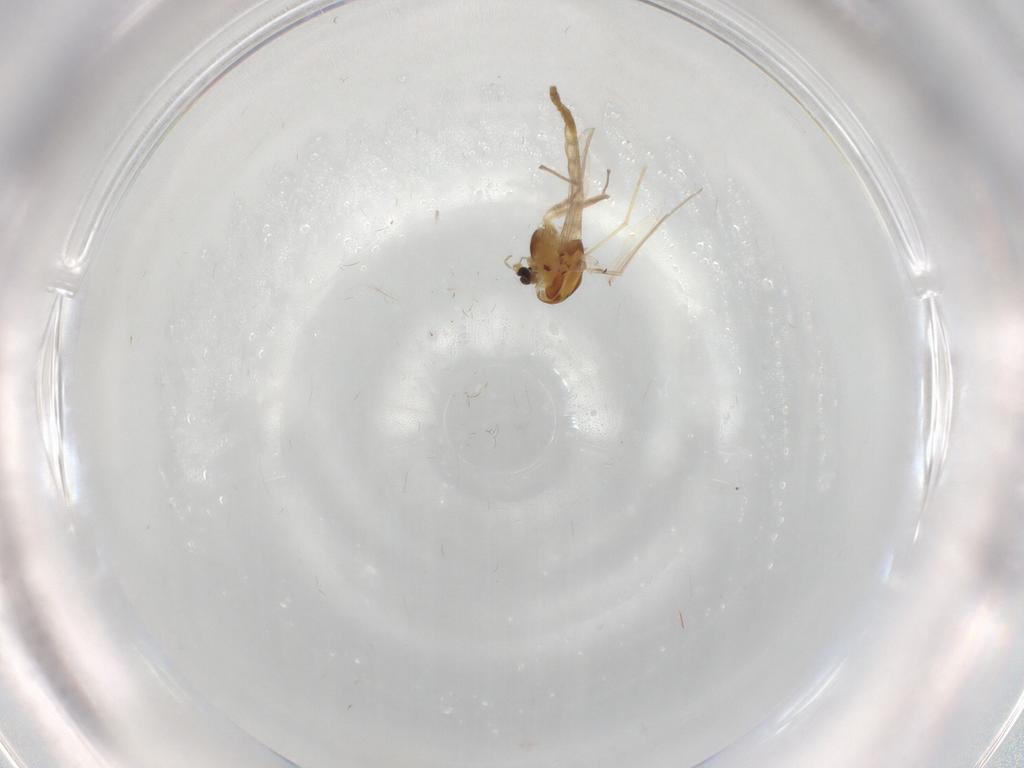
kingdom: Animalia
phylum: Arthropoda
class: Insecta
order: Diptera
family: Chironomidae
